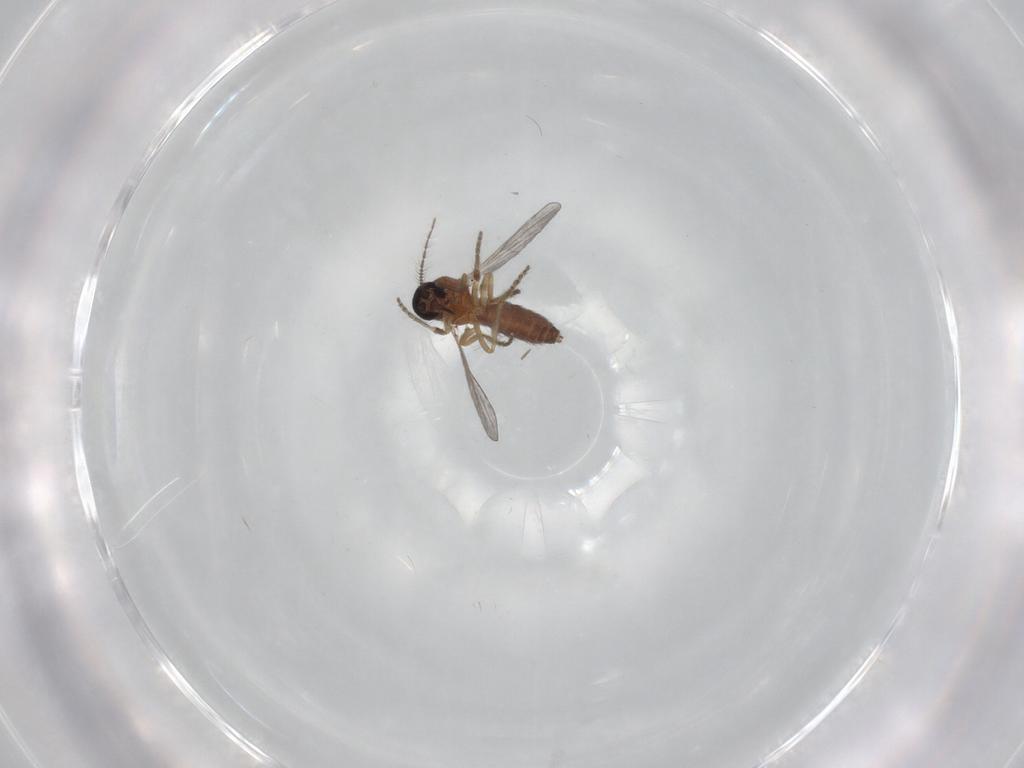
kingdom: Animalia
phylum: Arthropoda
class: Insecta
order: Diptera
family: Ceratopogonidae
